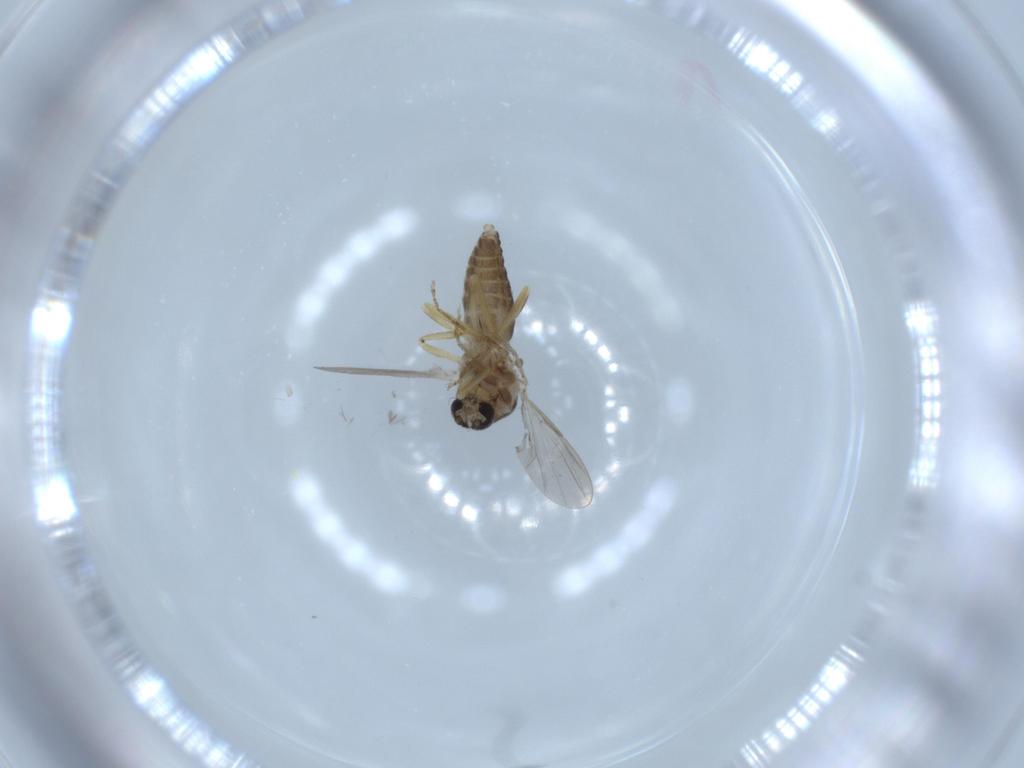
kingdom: Animalia
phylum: Arthropoda
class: Insecta
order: Diptera
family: Ceratopogonidae
